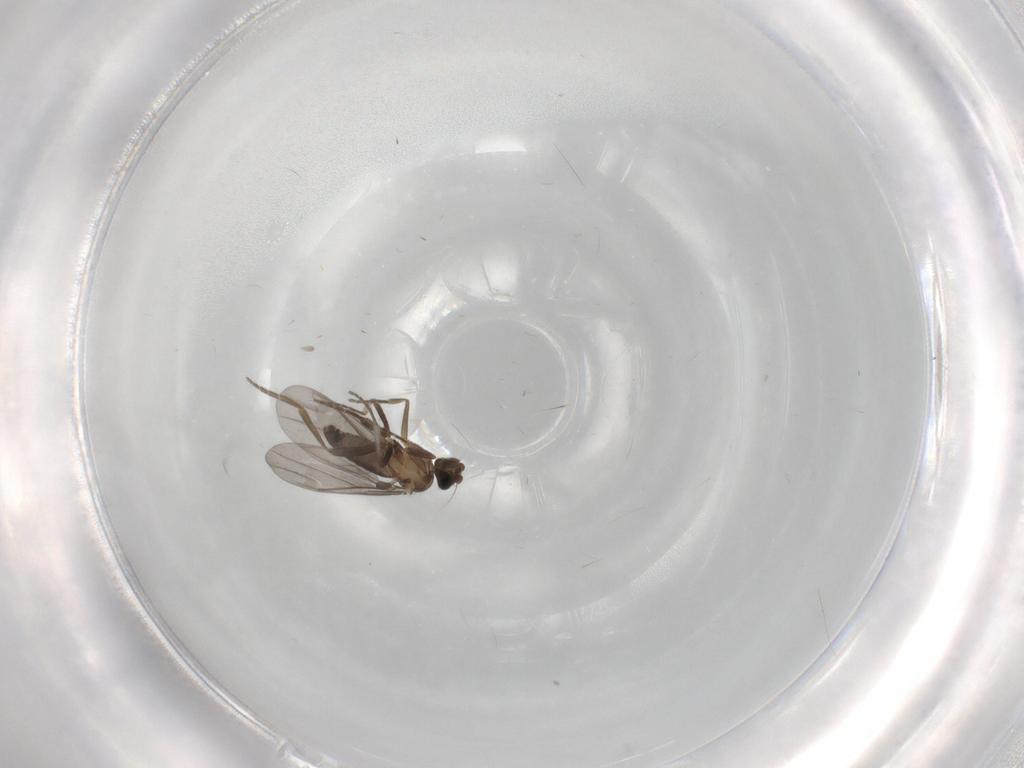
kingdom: Animalia
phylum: Arthropoda
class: Insecta
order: Diptera
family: Phoridae
